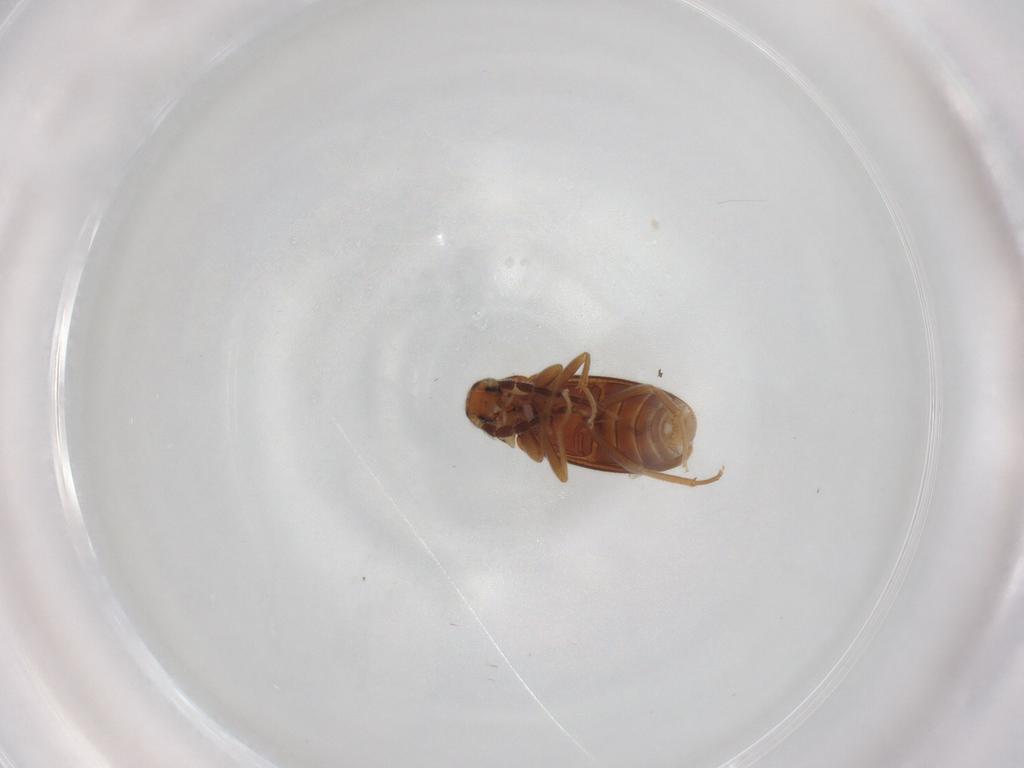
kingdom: Animalia
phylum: Arthropoda
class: Insecta
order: Coleoptera
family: Scraptiidae
